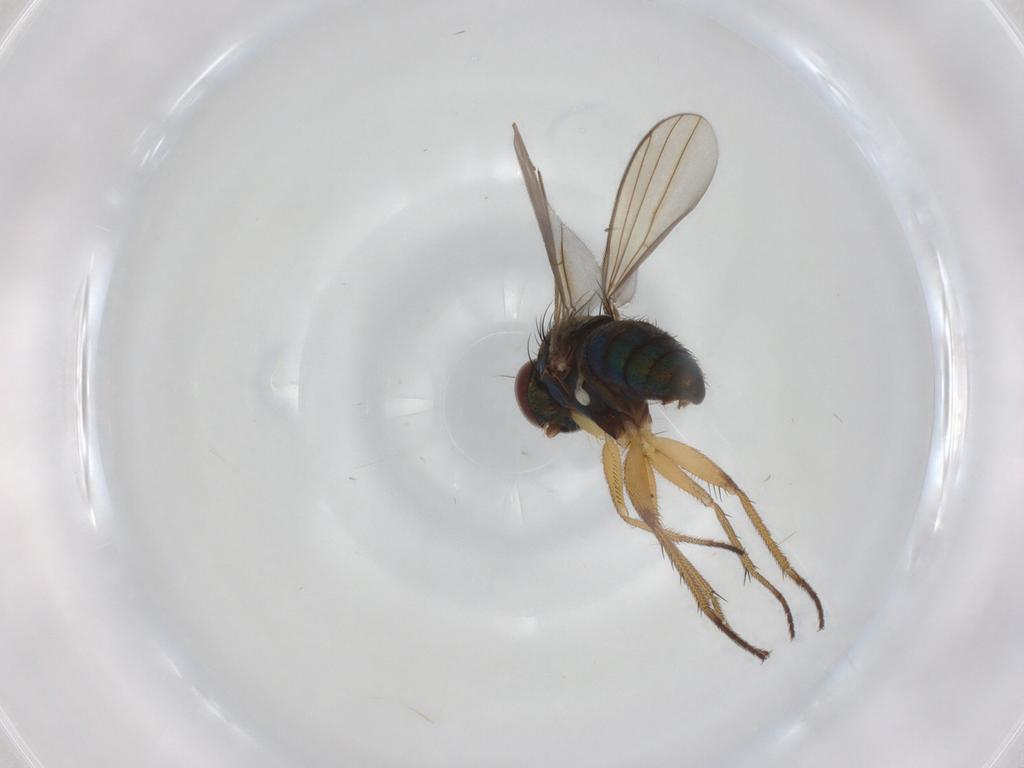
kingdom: Animalia
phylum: Arthropoda
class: Insecta
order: Diptera
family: Dolichopodidae
